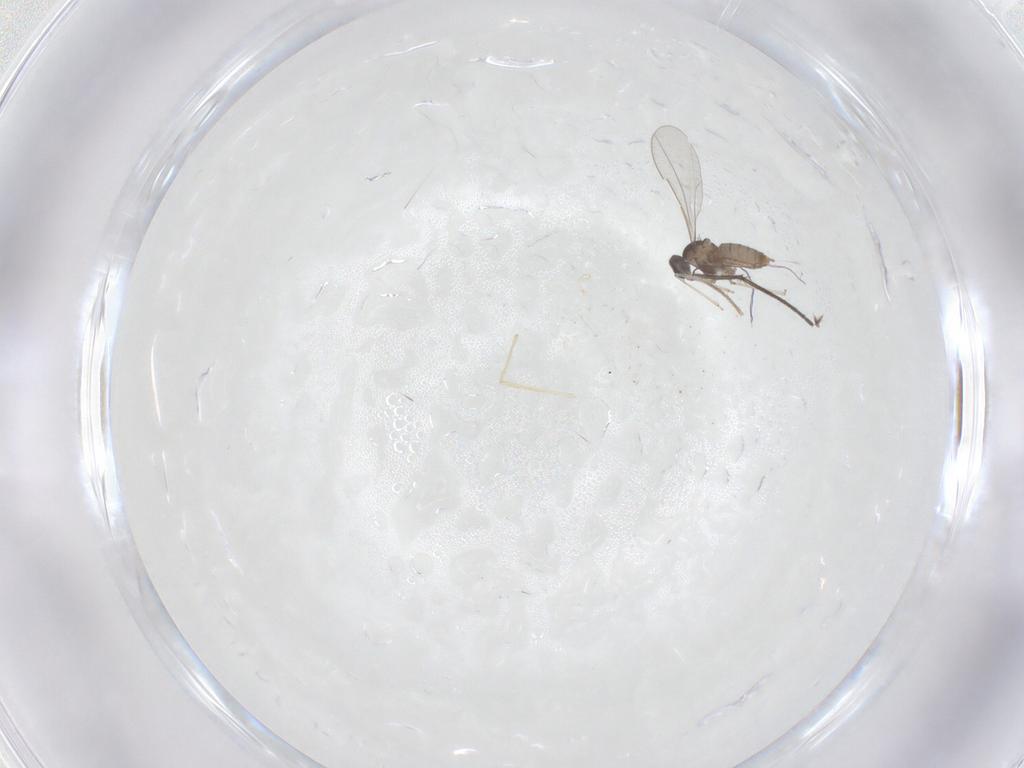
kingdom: Animalia
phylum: Arthropoda
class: Insecta
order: Diptera
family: Sciaridae
